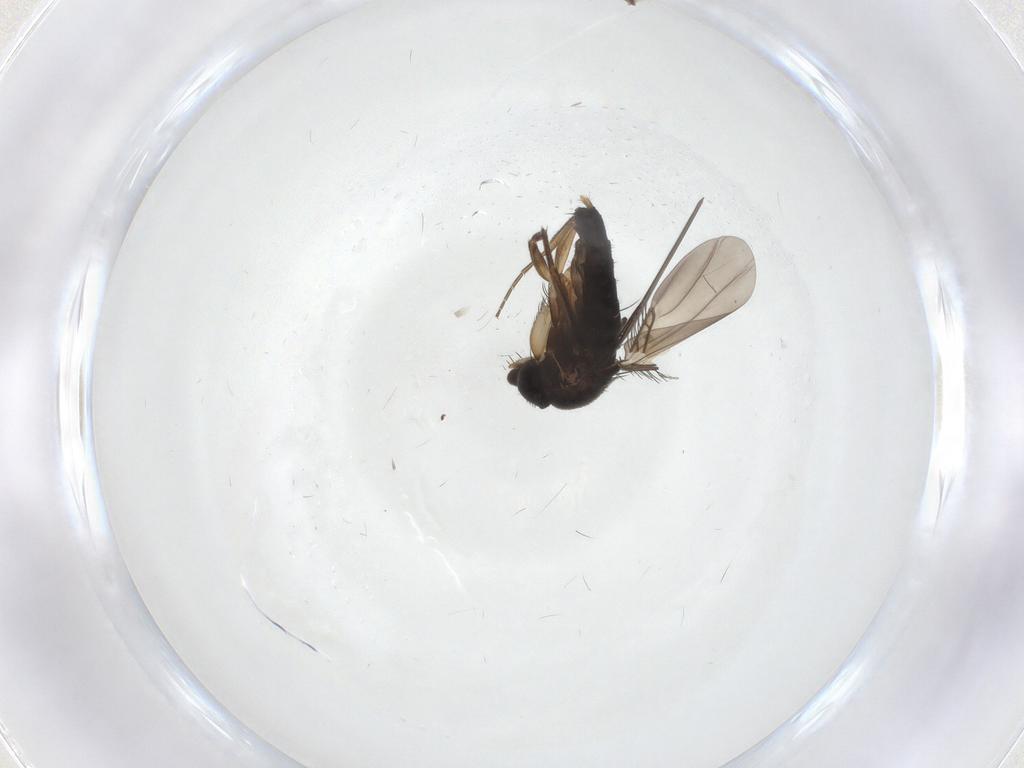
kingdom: Animalia
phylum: Arthropoda
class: Insecta
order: Diptera
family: Phoridae
